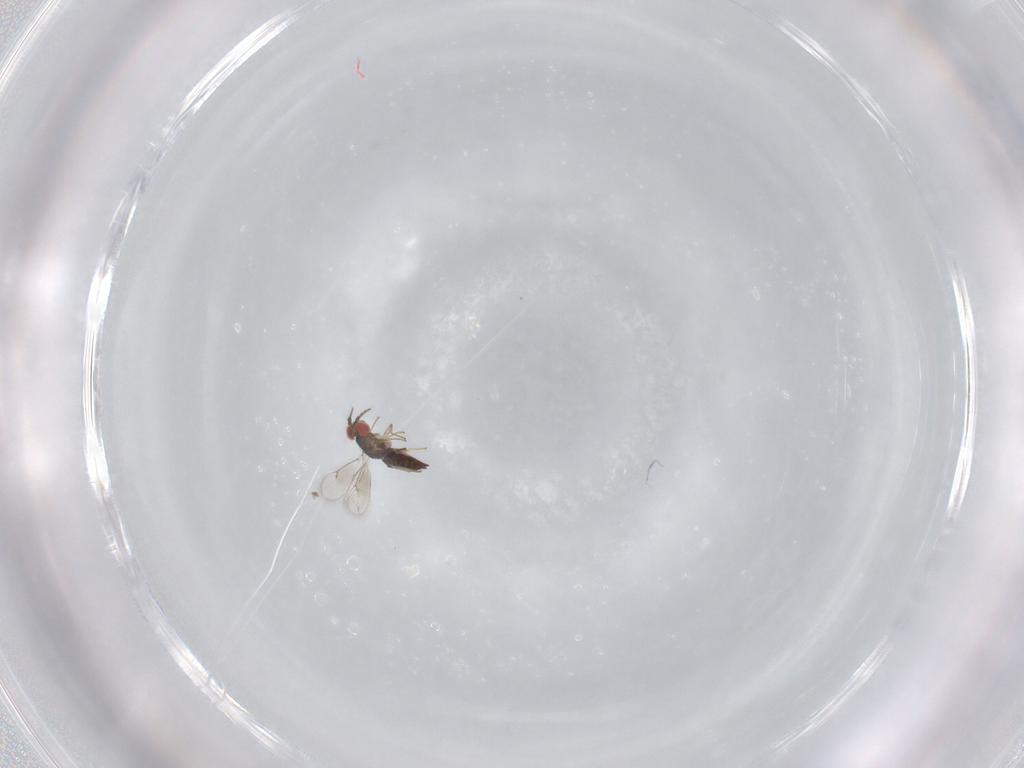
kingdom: Animalia
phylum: Arthropoda
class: Insecta
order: Hymenoptera
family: Eulophidae
